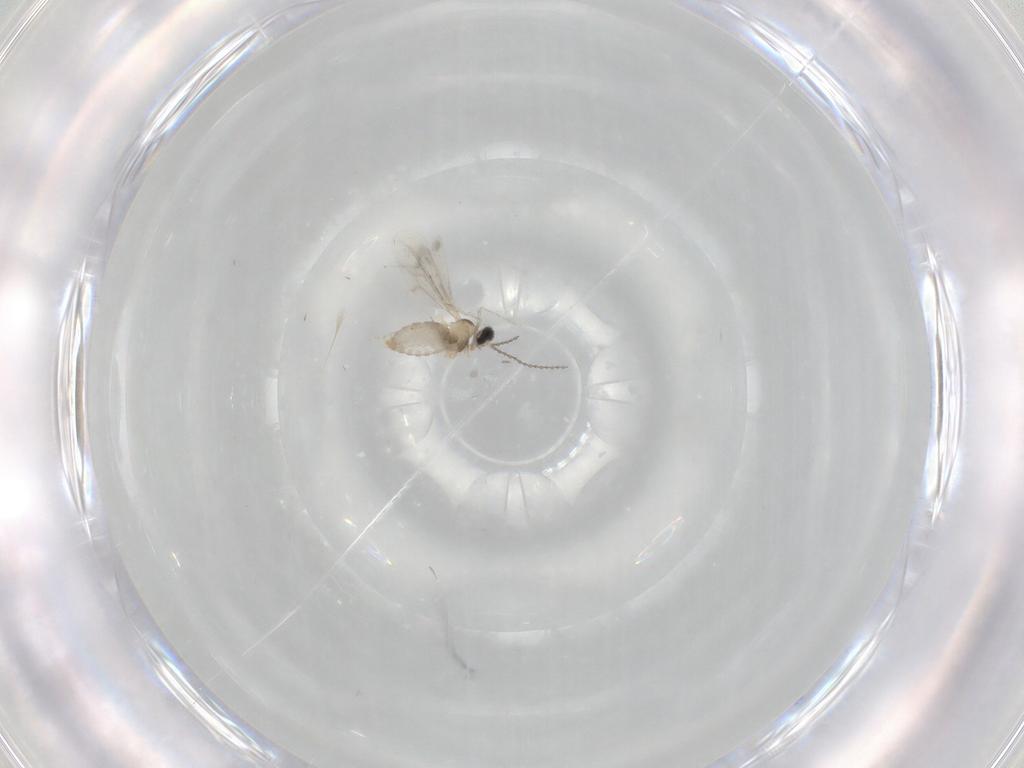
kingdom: Animalia
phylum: Arthropoda
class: Insecta
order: Diptera
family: Cecidomyiidae
